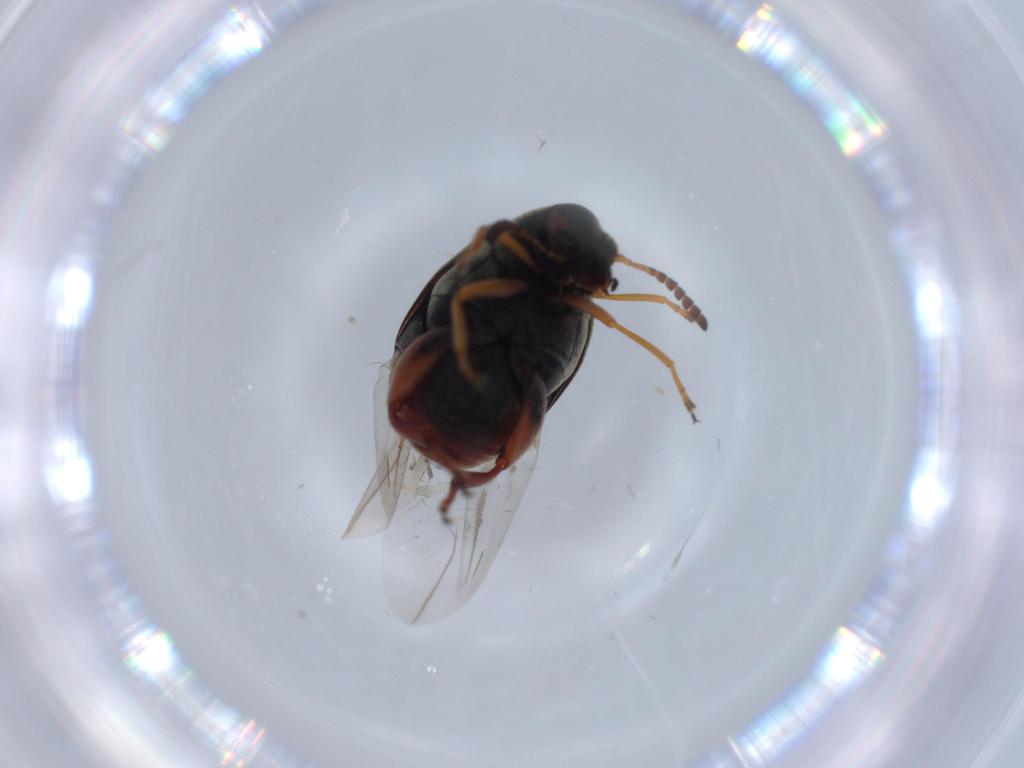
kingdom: Animalia
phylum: Arthropoda
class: Insecta
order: Coleoptera
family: Chrysomelidae
